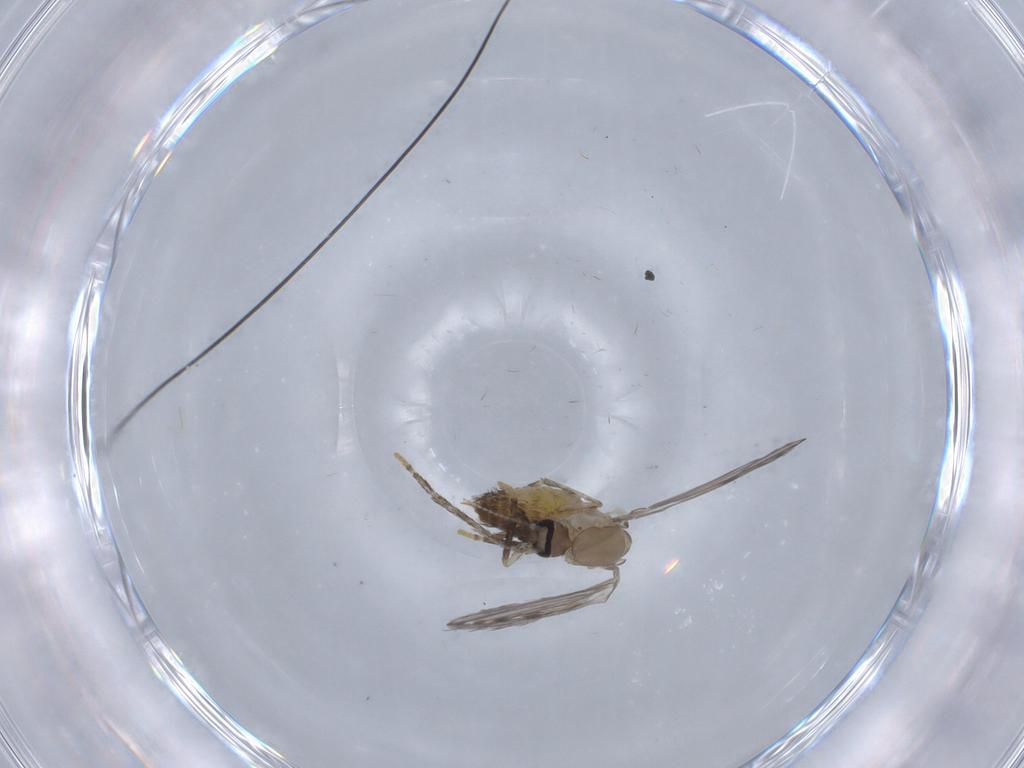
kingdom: Animalia
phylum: Arthropoda
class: Insecta
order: Diptera
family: Psychodidae
